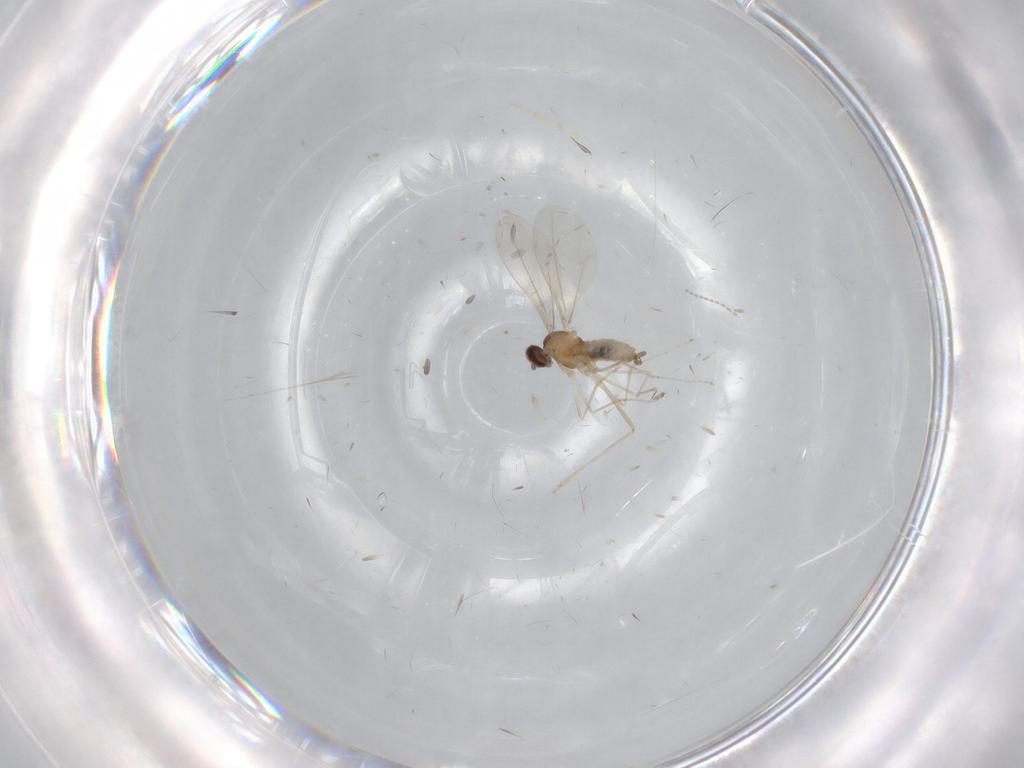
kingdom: Animalia
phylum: Arthropoda
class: Insecta
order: Diptera
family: Cecidomyiidae
